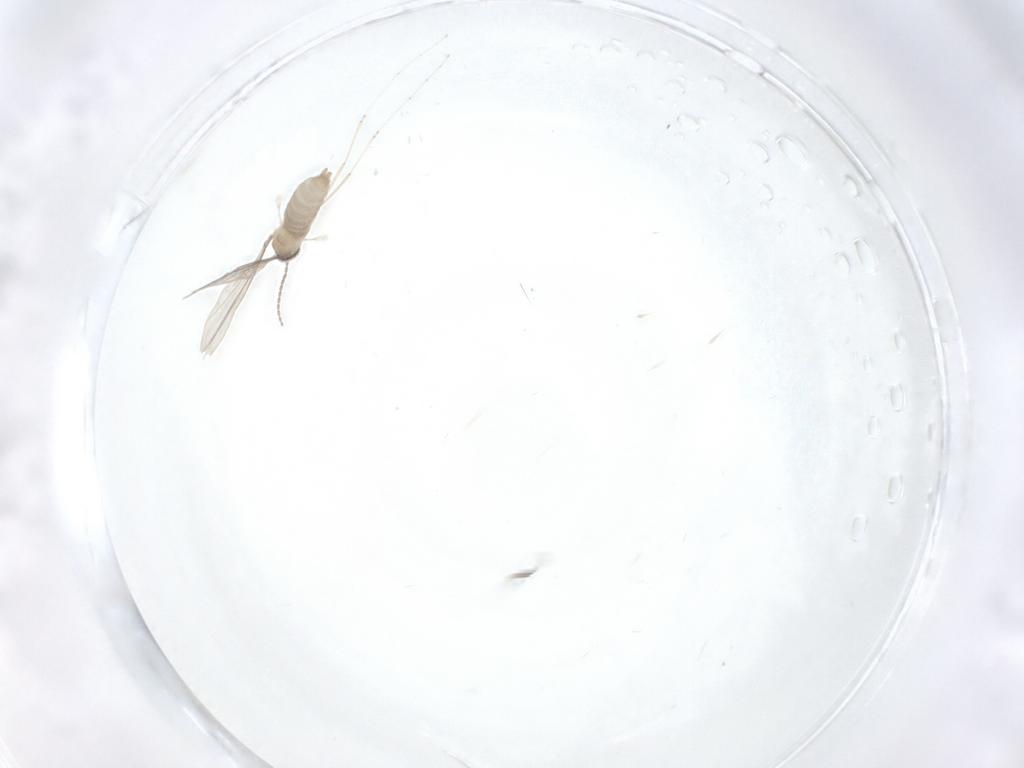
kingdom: Animalia
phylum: Arthropoda
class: Insecta
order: Diptera
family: Cecidomyiidae
